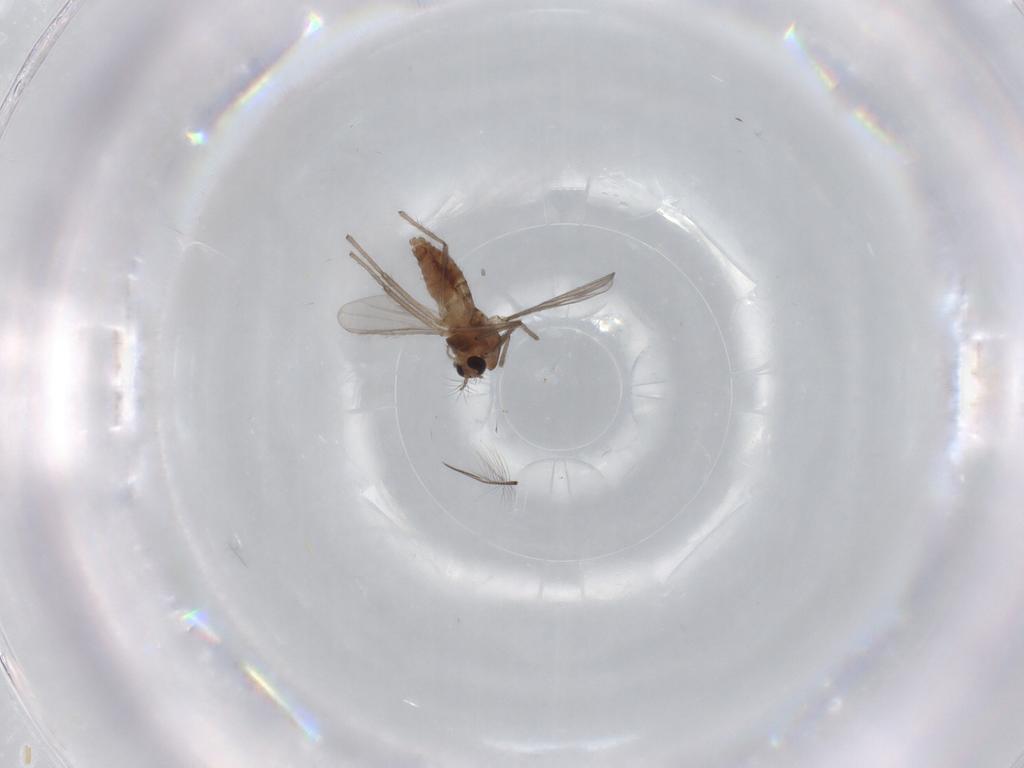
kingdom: Animalia
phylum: Arthropoda
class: Insecta
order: Diptera
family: Chironomidae
